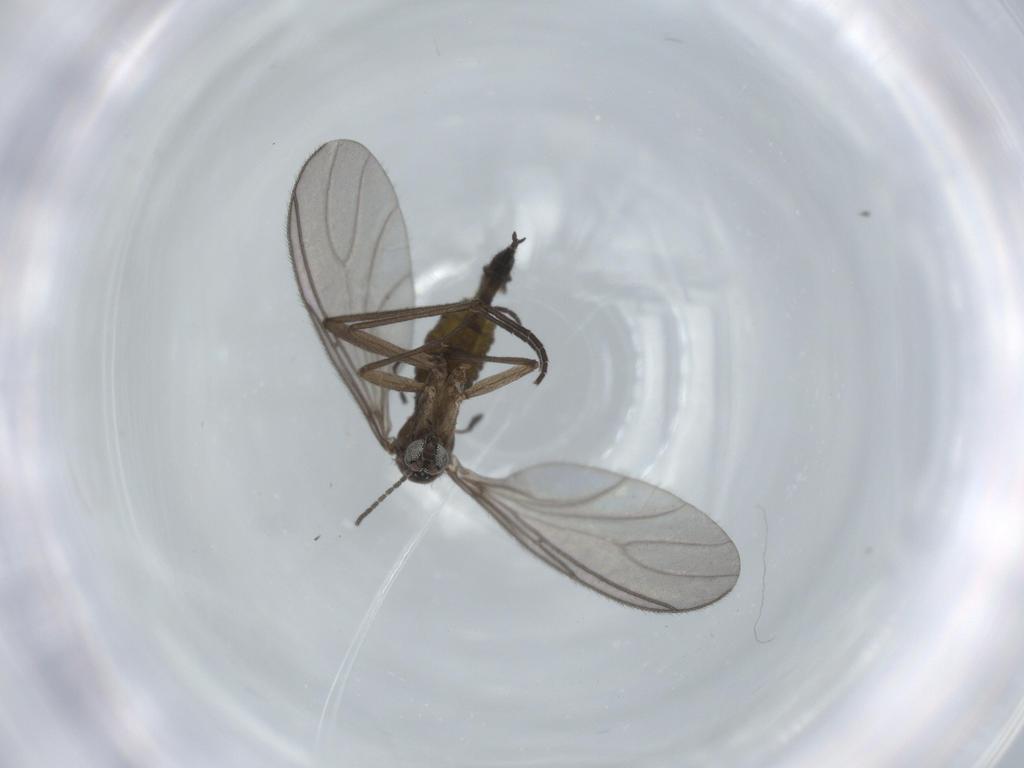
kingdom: Animalia
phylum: Arthropoda
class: Insecta
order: Diptera
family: Sciaridae
